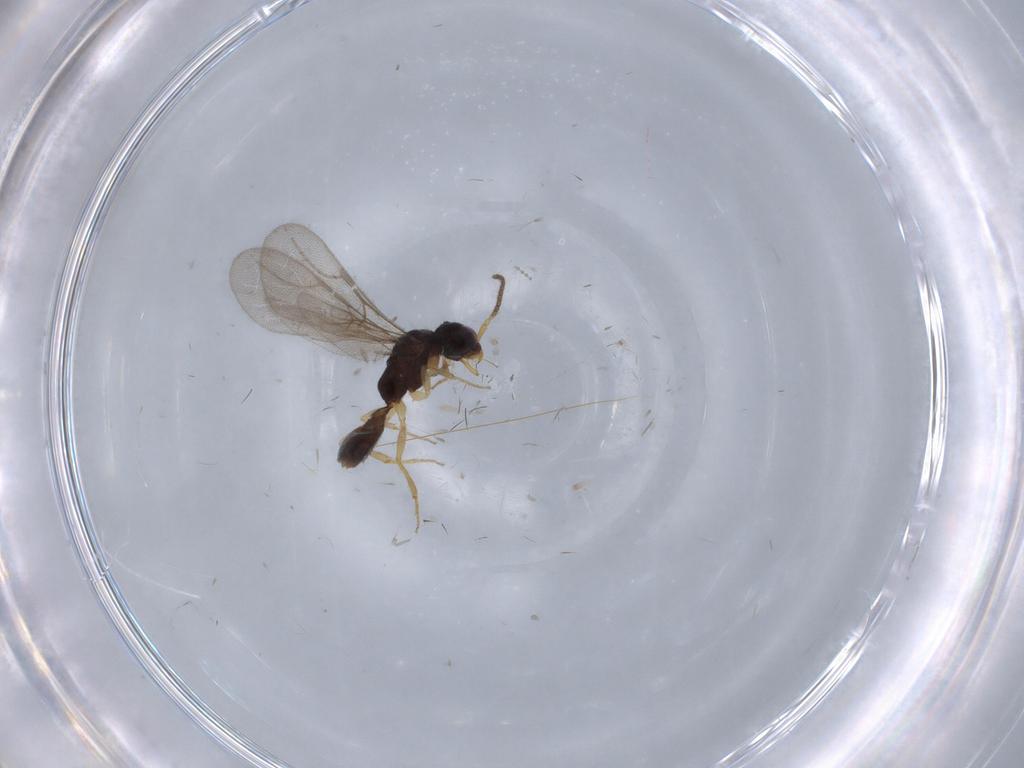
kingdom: Animalia
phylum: Arthropoda
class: Insecta
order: Hymenoptera
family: Bethylidae
